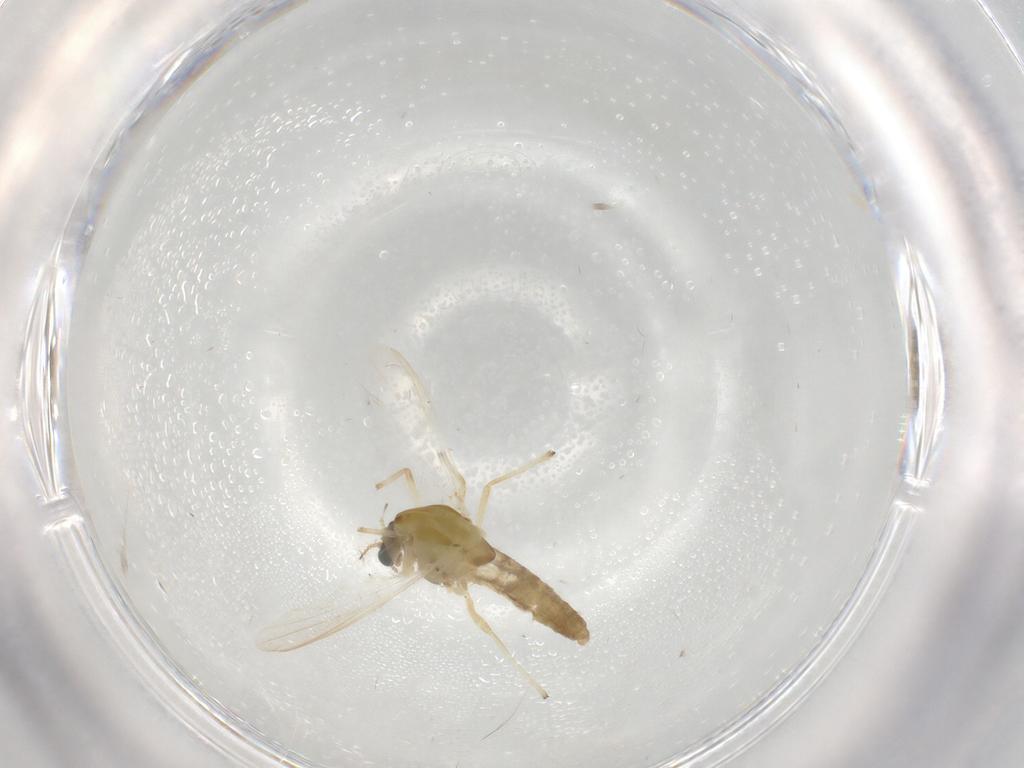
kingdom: Animalia
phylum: Arthropoda
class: Insecta
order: Diptera
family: Chironomidae
